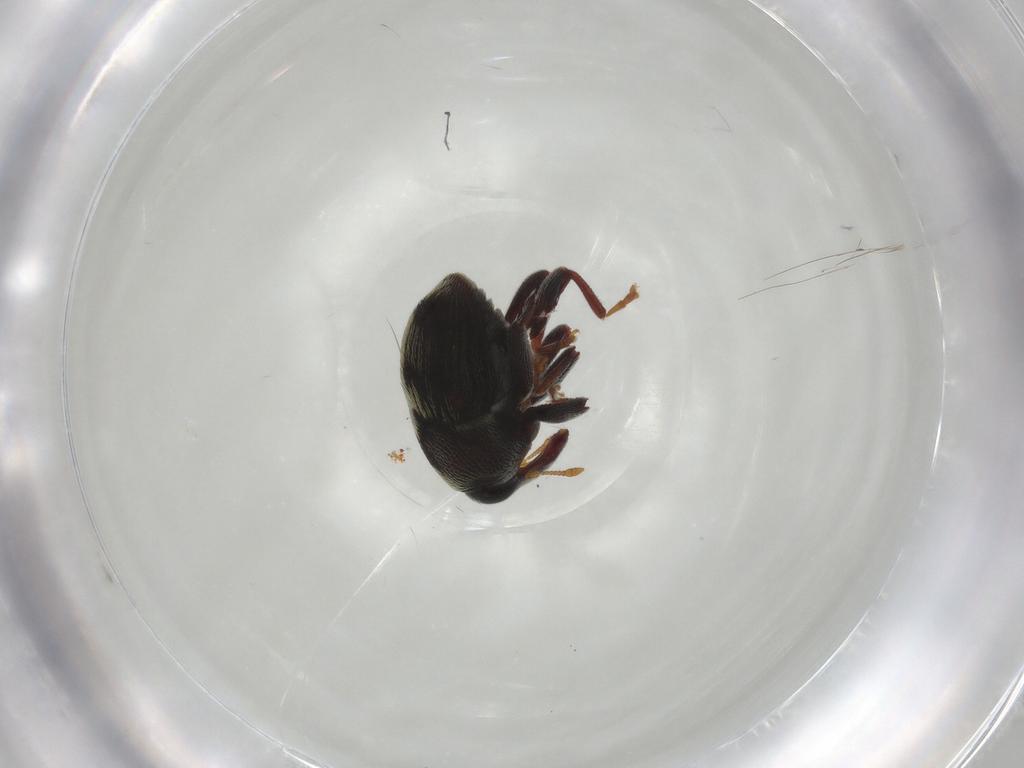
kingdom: Animalia
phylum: Arthropoda
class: Insecta
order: Coleoptera
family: Curculionidae
